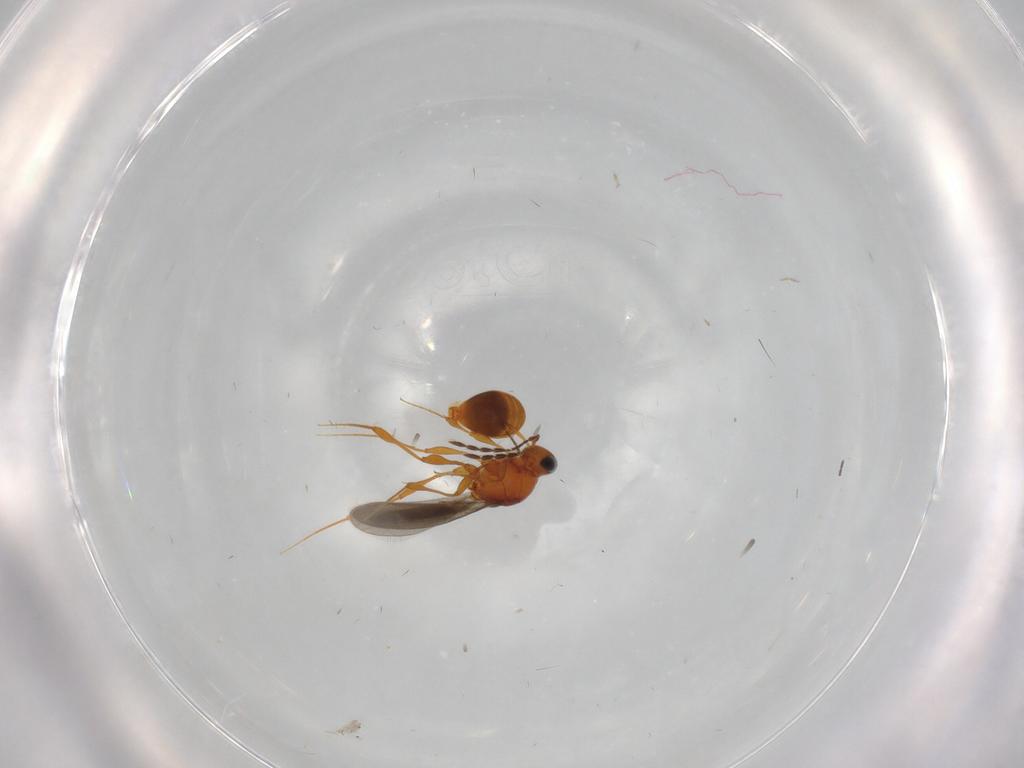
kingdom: Animalia
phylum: Arthropoda
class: Insecta
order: Hymenoptera
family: Platygastridae
